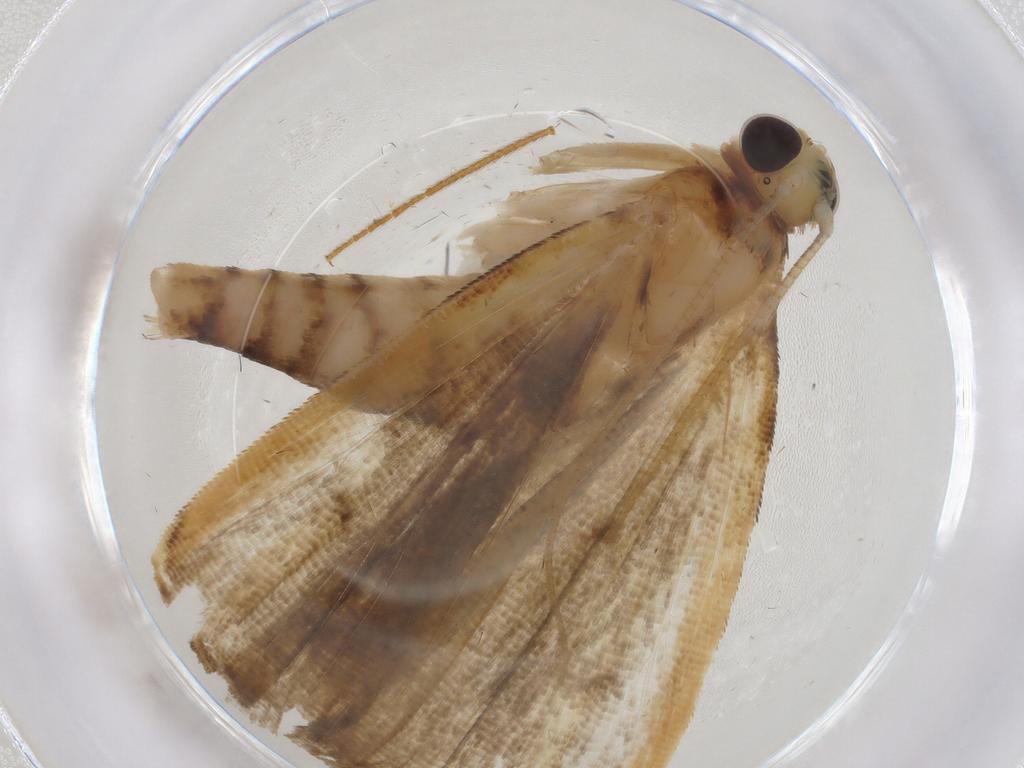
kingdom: Animalia
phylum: Arthropoda
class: Insecta
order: Lepidoptera
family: Crambidae
